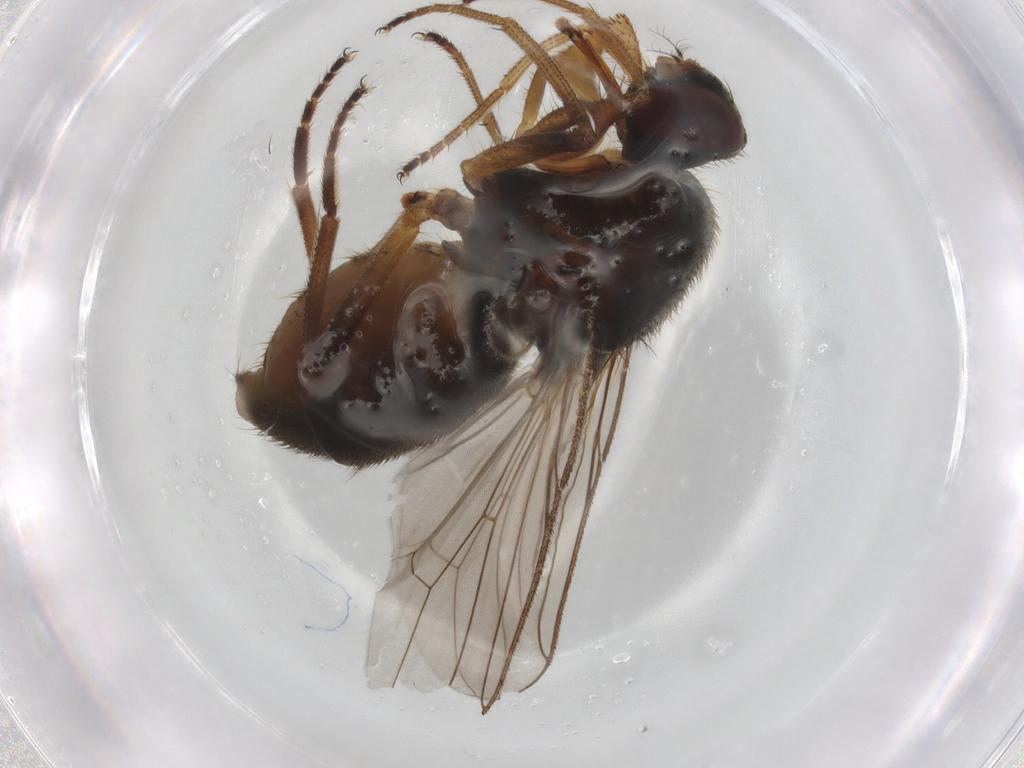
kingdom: Animalia
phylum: Arthropoda
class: Insecta
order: Diptera
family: Muscidae
